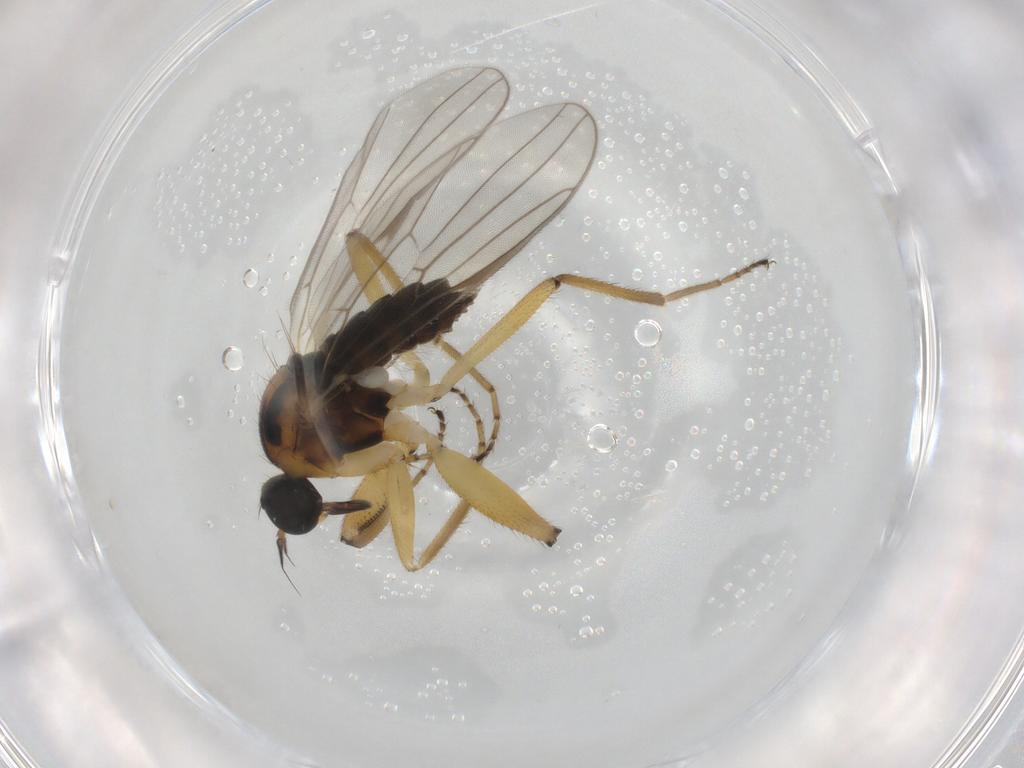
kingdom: Animalia
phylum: Arthropoda
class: Insecta
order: Diptera
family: Hybotidae
